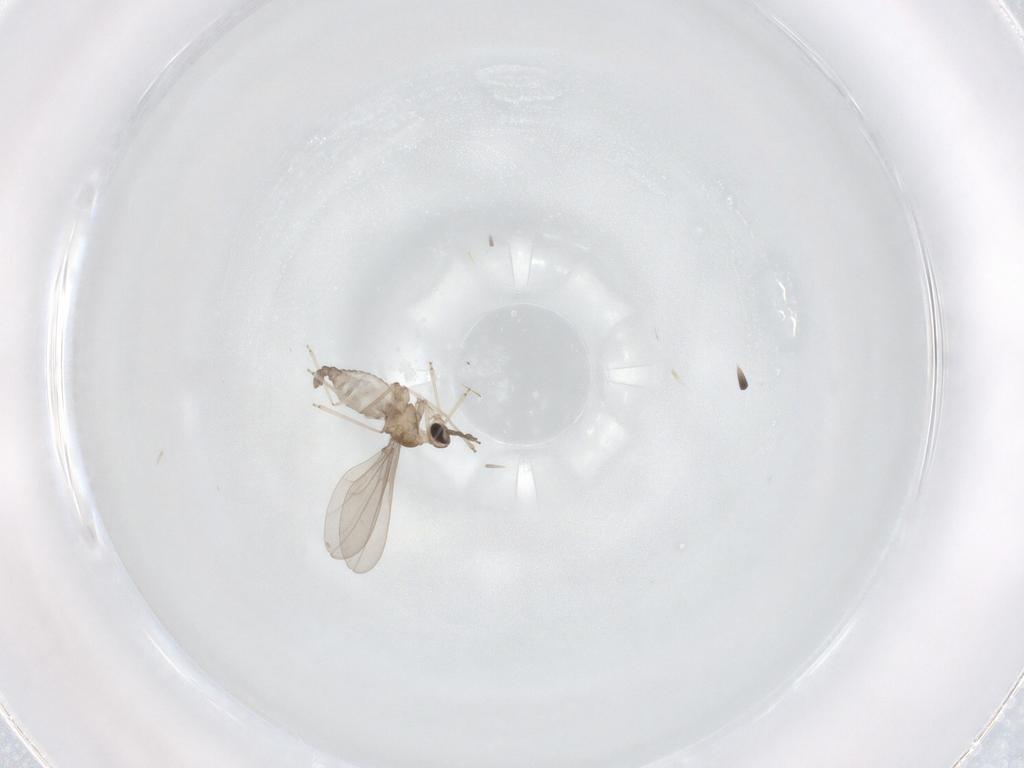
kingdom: Animalia
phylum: Arthropoda
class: Insecta
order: Diptera
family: Cecidomyiidae
